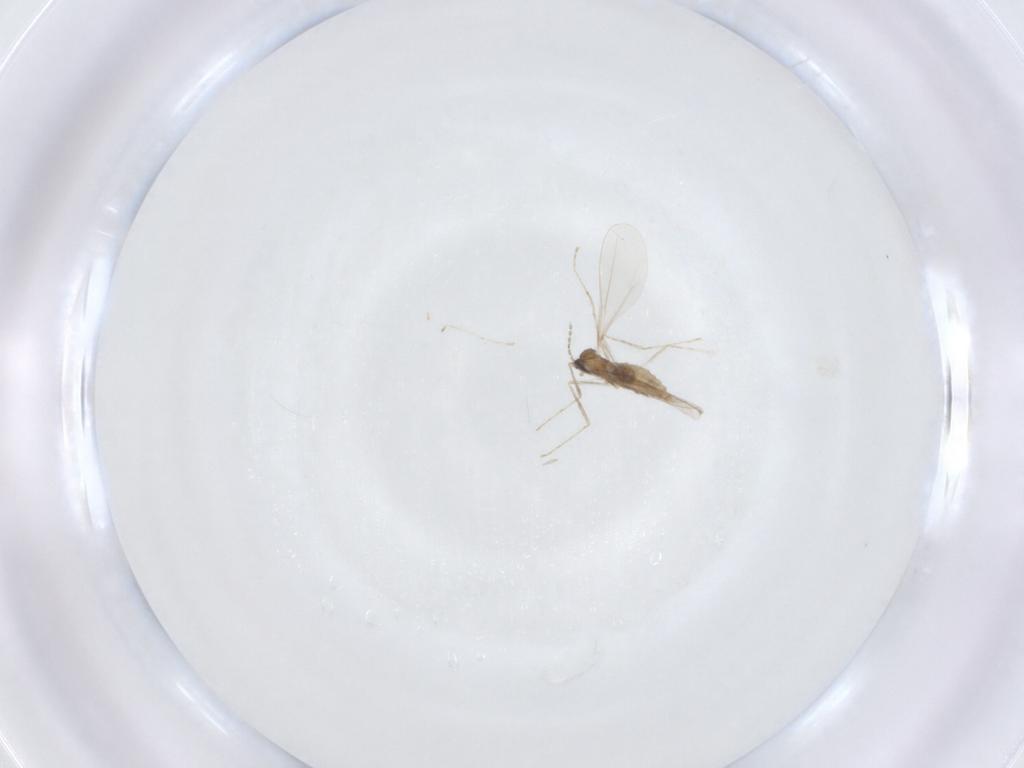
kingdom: Animalia
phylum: Arthropoda
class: Insecta
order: Diptera
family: Cecidomyiidae
